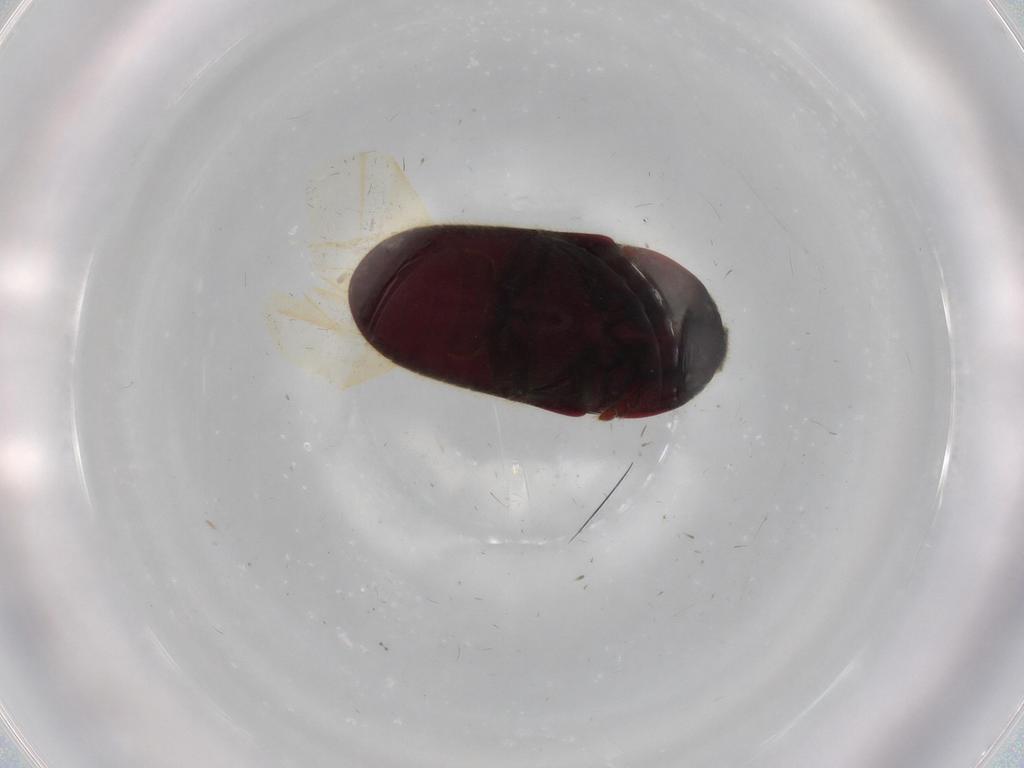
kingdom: Animalia
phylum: Arthropoda
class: Insecta
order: Coleoptera
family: Throscidae
